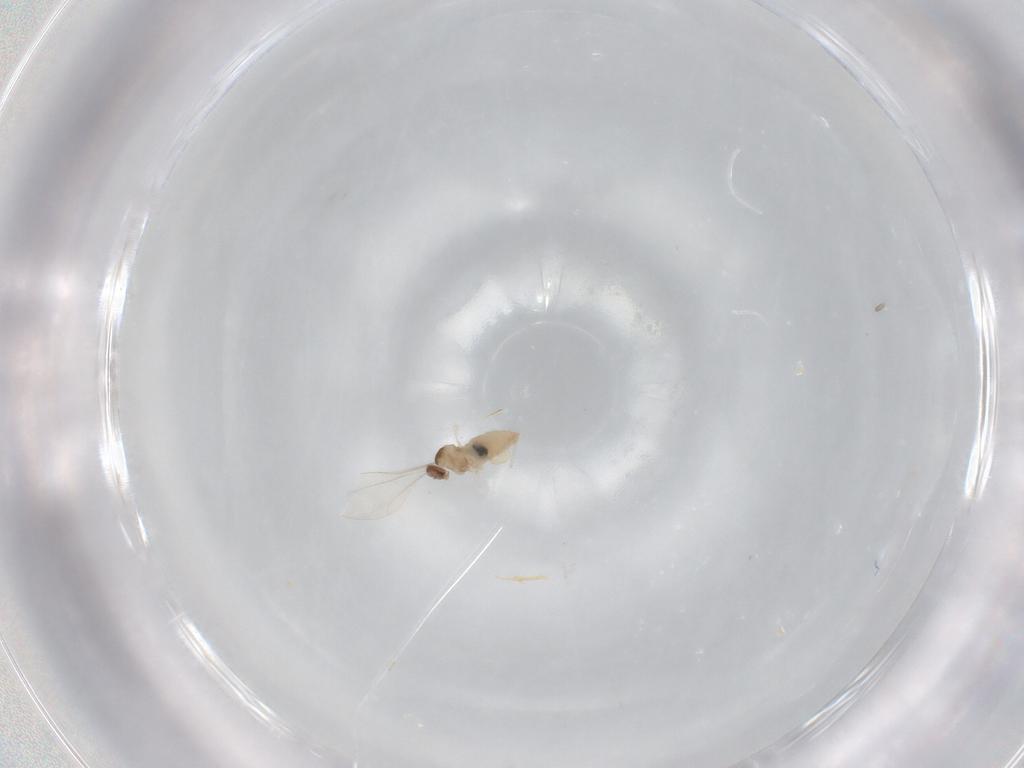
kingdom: Animalia
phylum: Arthropoda
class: Insecta
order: Diptera
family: Cecidomyiidae
